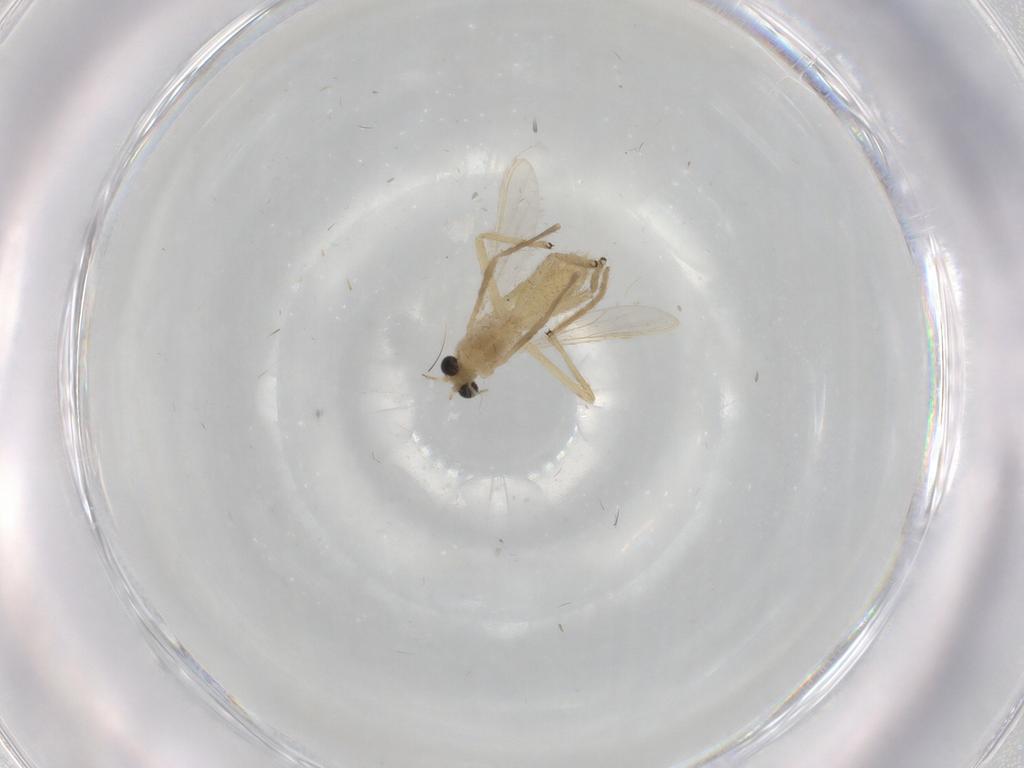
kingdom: Animalia
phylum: Arthropoda
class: Insecta
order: Diptera
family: Chironomidae
